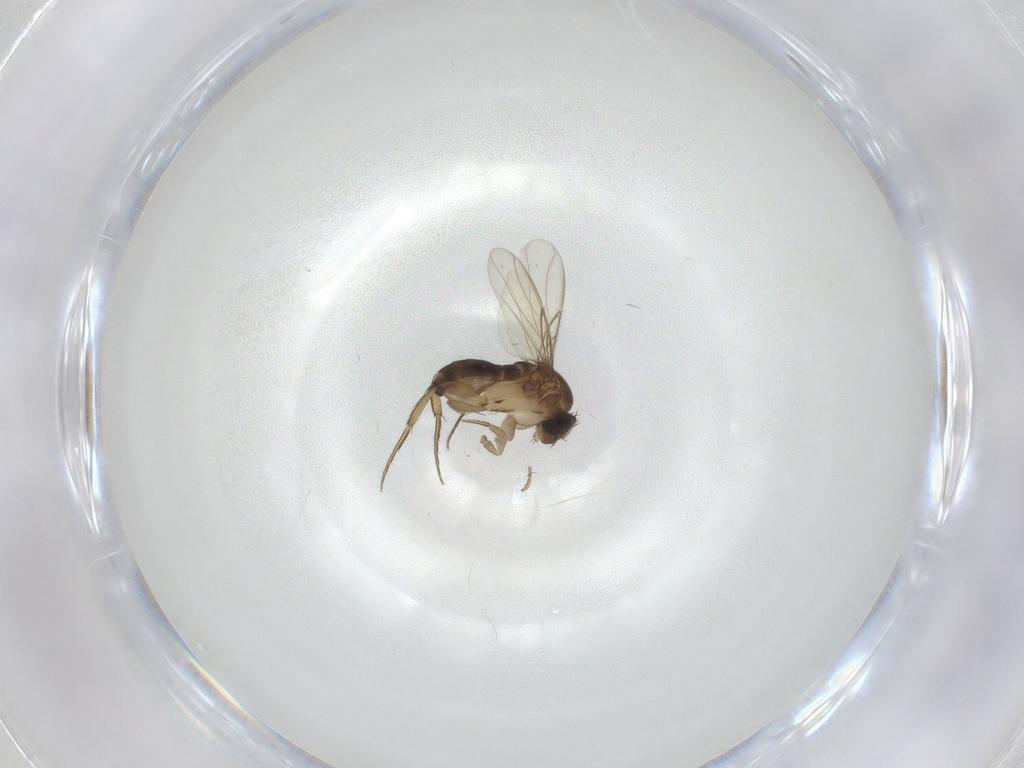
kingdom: Animalia
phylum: Arthropoda
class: Insecta
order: Diptera
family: Phoridae
